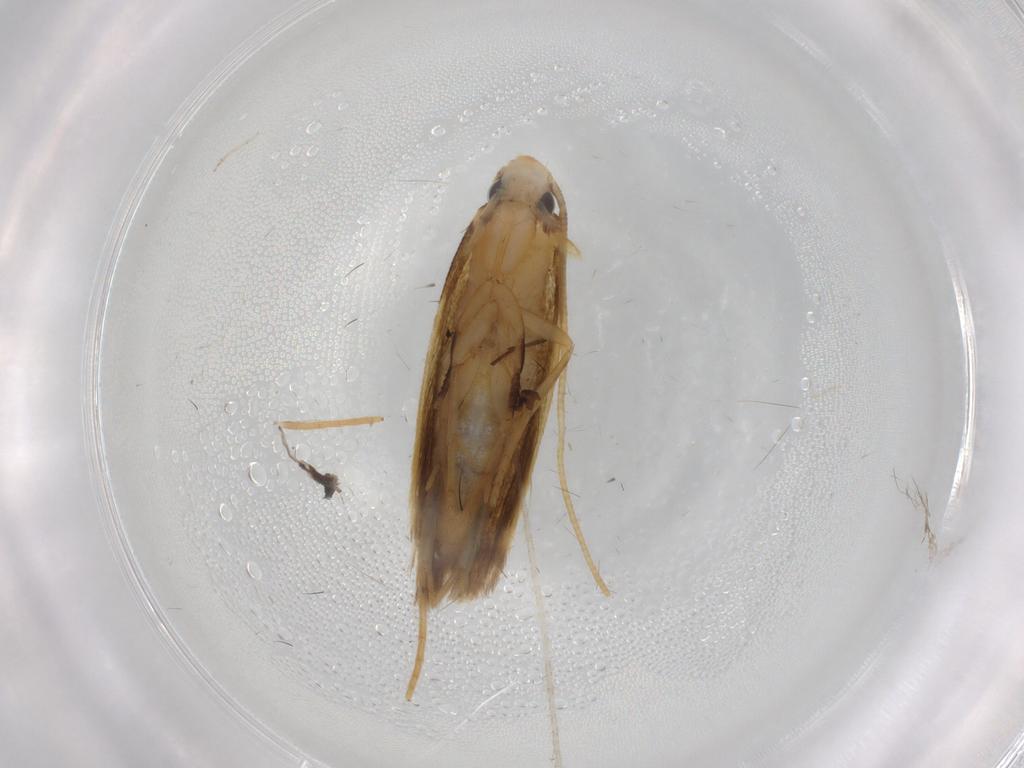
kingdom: Animalia
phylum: Arthropoda
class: Insecta
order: Lepidoptera
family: Tineidae
